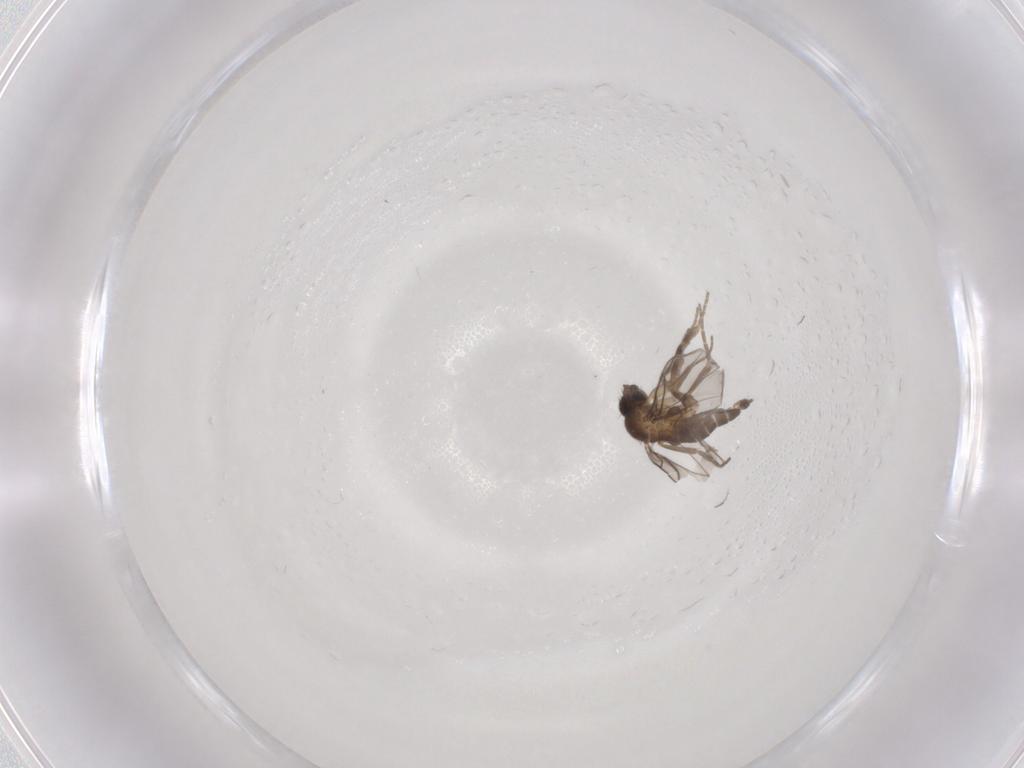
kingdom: Animalia
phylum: Arthropoda
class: Insecta
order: Diptera
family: Phoridae
